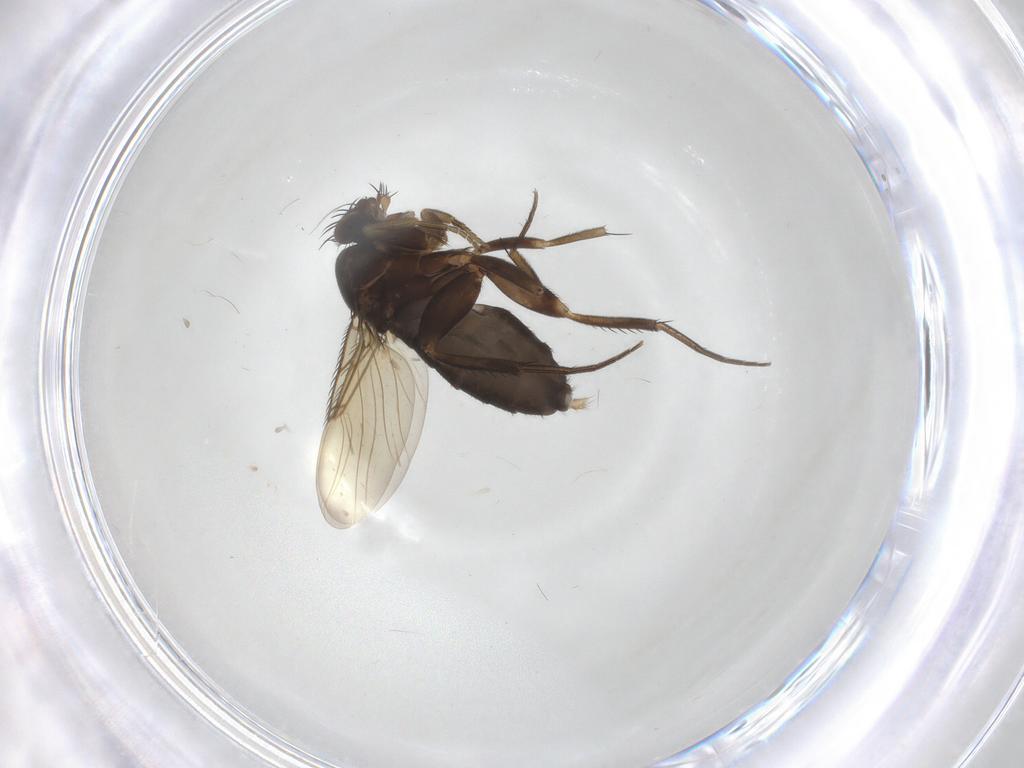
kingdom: Animalia
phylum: Arthropoda
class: Insecta
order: Diptera
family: Phoridae
